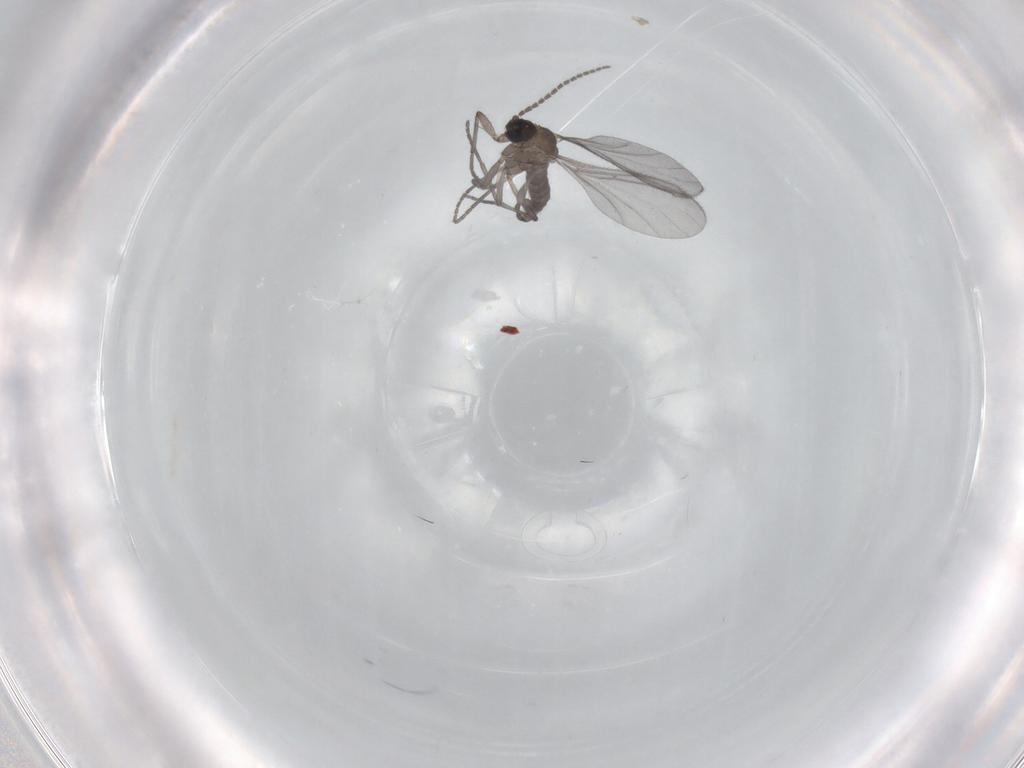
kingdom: Animalia
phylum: Arthropoda
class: Insecta
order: Diptera
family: Sciaridae
